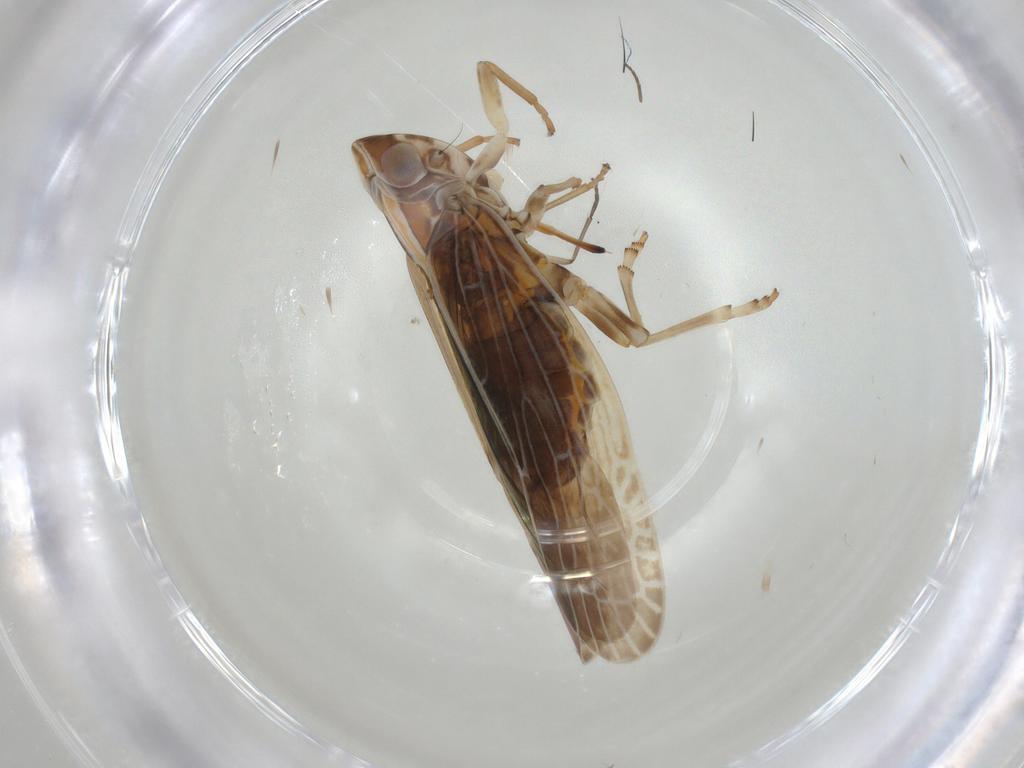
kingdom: Animalia
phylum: Arthropoda
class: Insecta
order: Hemiptera
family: Achilidae
